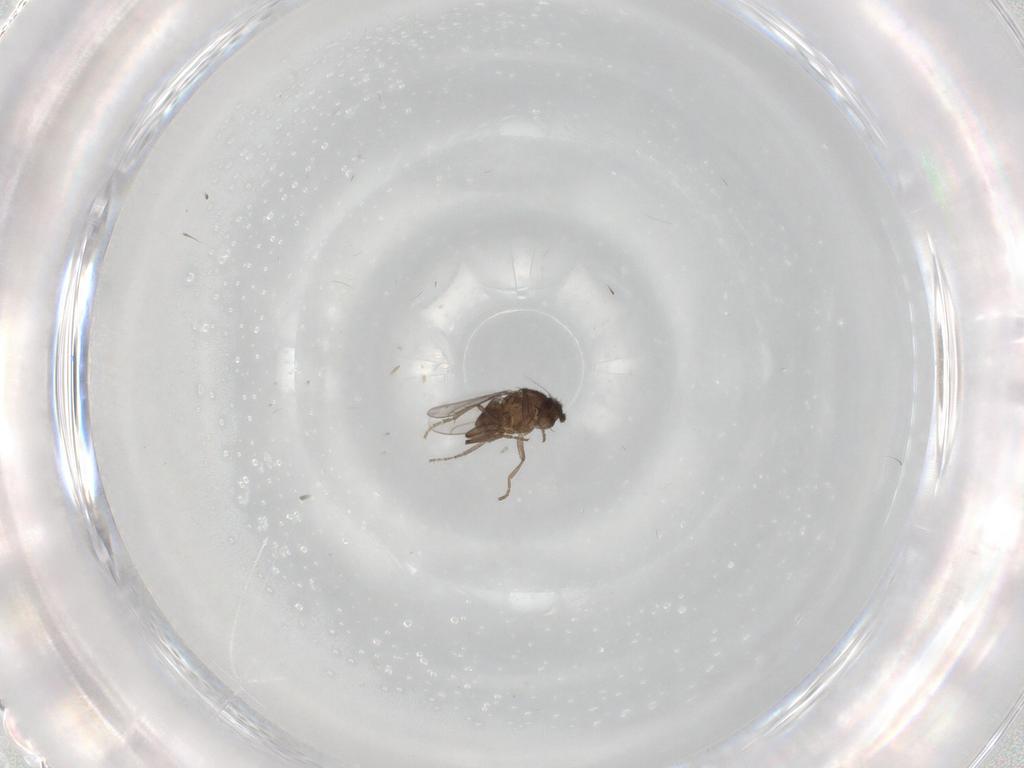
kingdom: Animalia
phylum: Arthropoda
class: Insecta
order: Diptera
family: Sphaeroceridae
